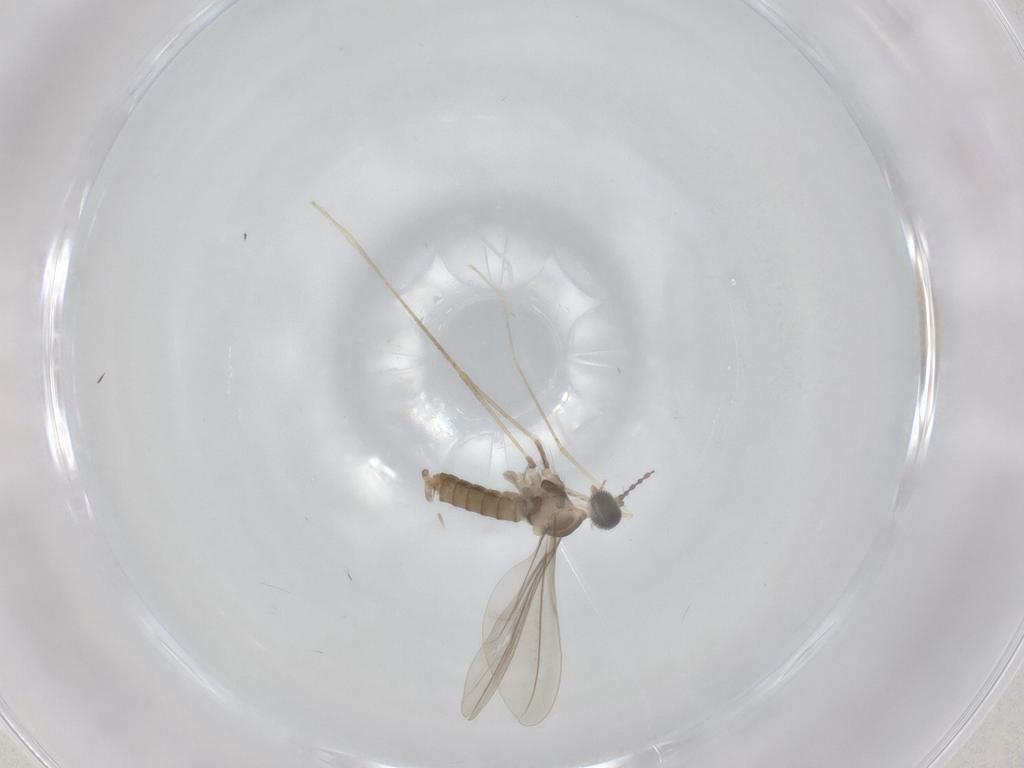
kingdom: Animalia
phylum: Arthropoda
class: Insecta
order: Diptera
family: Cecidomyiidae
